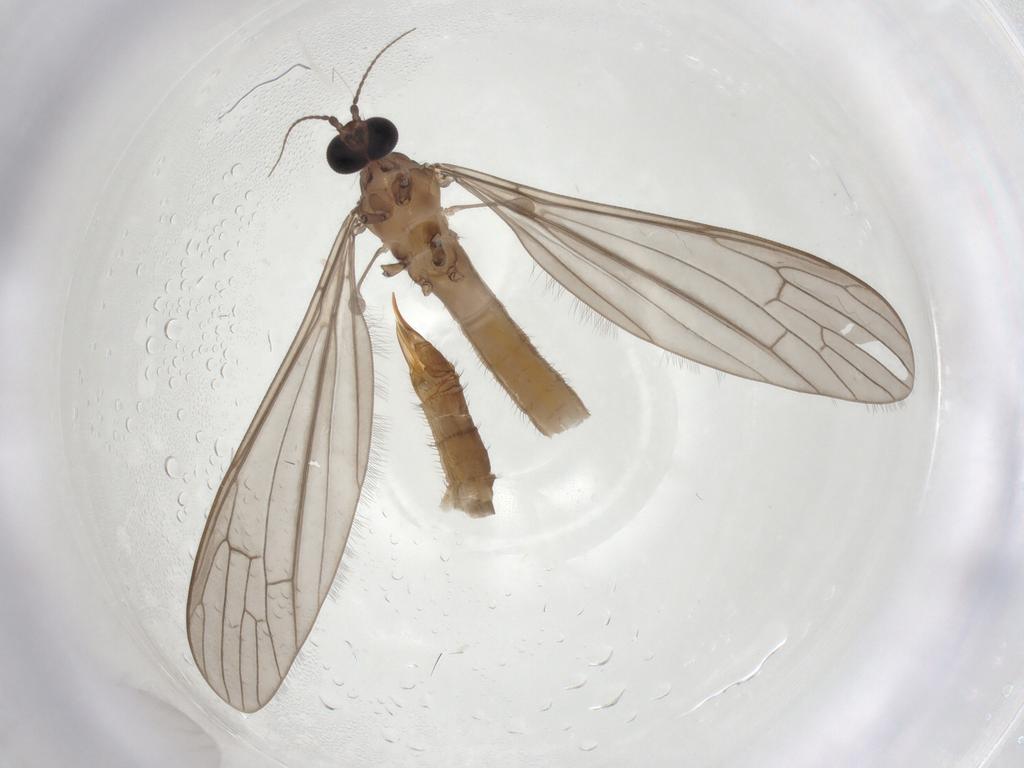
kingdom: Animalia
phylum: Arthropoda
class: Insecta
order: Diptera
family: Limoniidae
